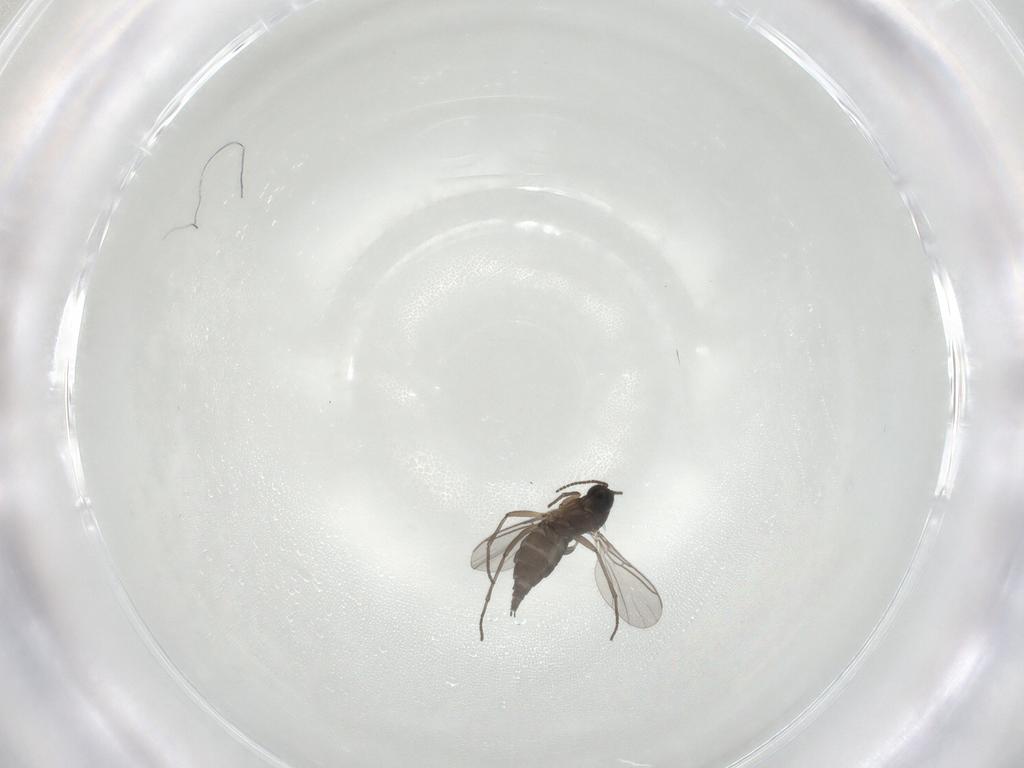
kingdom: Animalia
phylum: Arthropoda
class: Insecta
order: Diptera
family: Sciaridae
